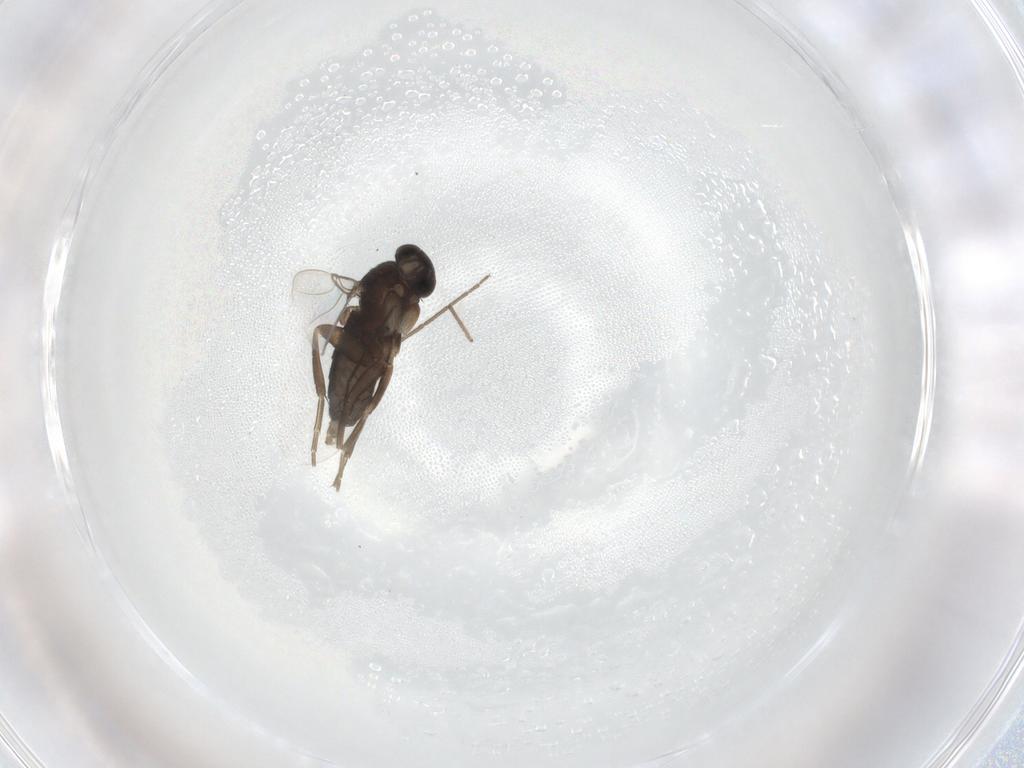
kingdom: Animalia
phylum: Arthropoda
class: Insecta
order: Diptera
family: Phoridae
